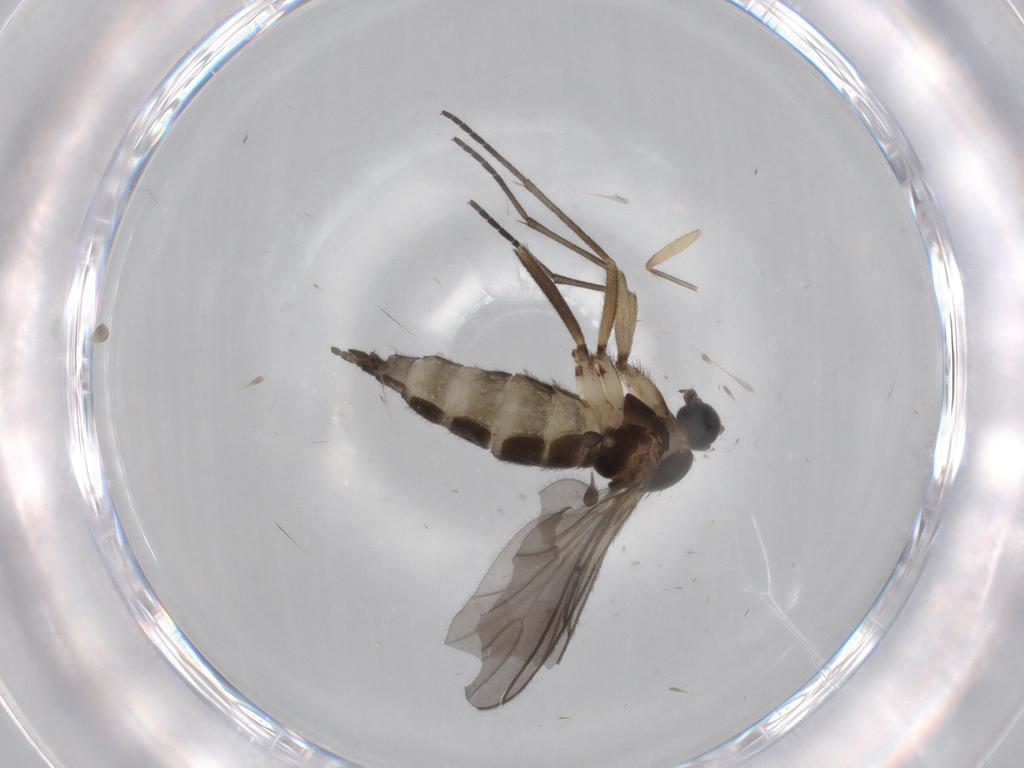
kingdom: Animalia
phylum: Arthropoda
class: Insecta
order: Diptera
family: Sciaridae
